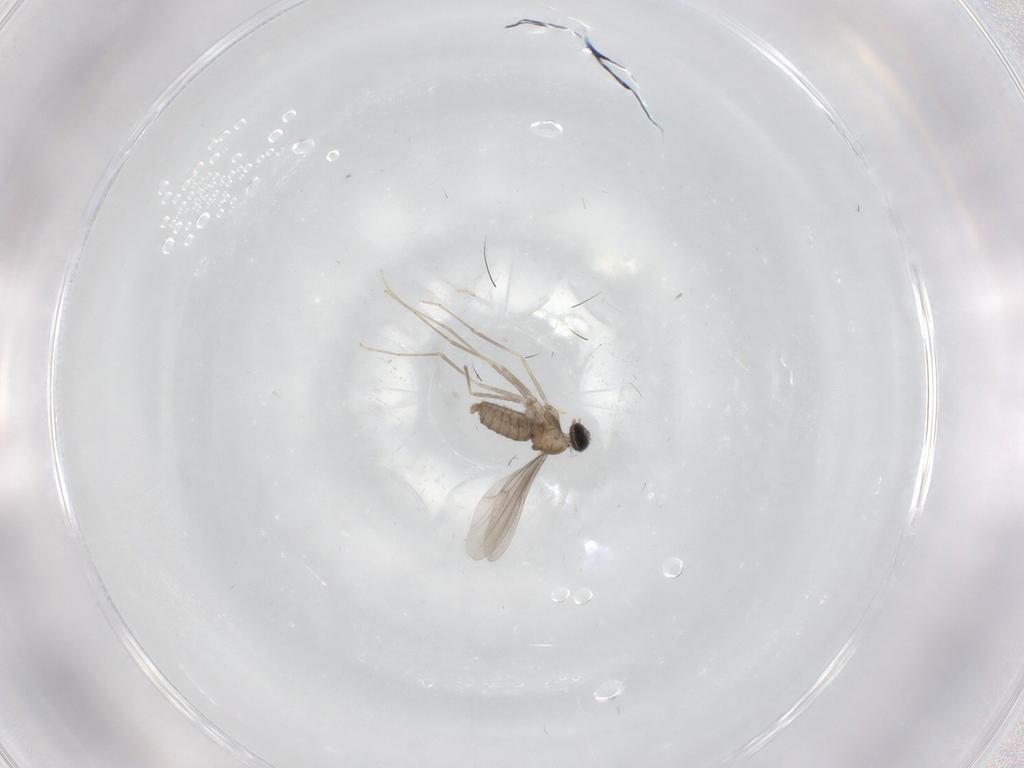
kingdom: Animalia
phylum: Arthropoda
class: Insecta
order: Diptera
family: Cecidomyiidae
